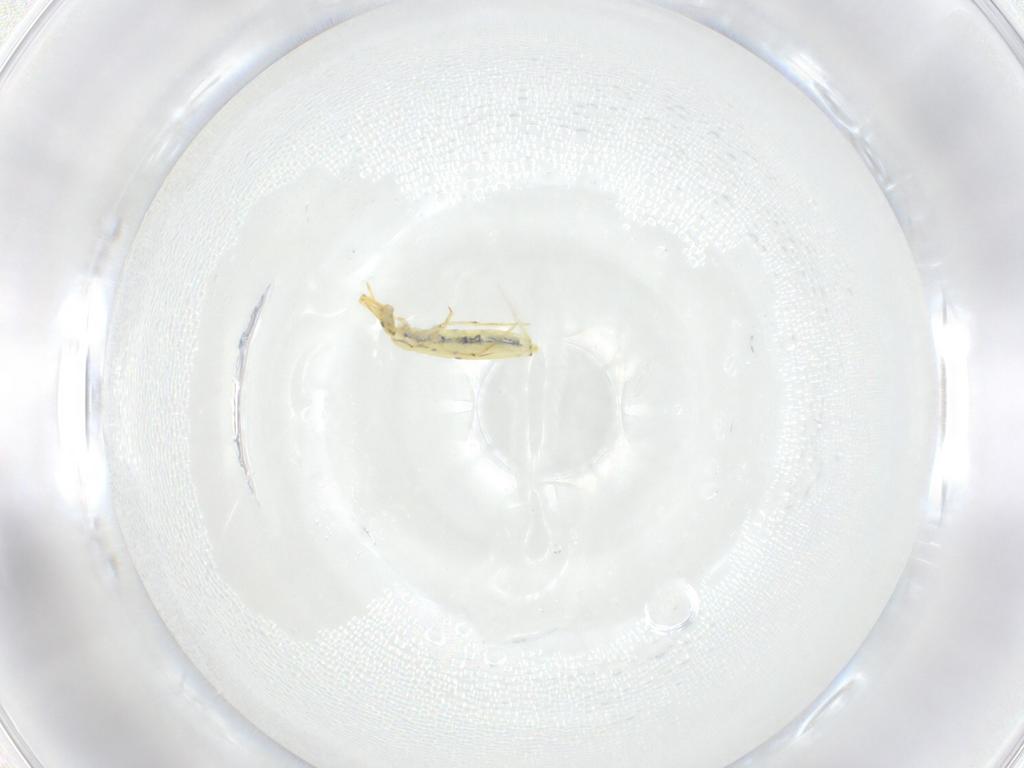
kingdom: Animalia
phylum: Arthropoda
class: Collembola
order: Entomobryomorpha
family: Entomobryidae
